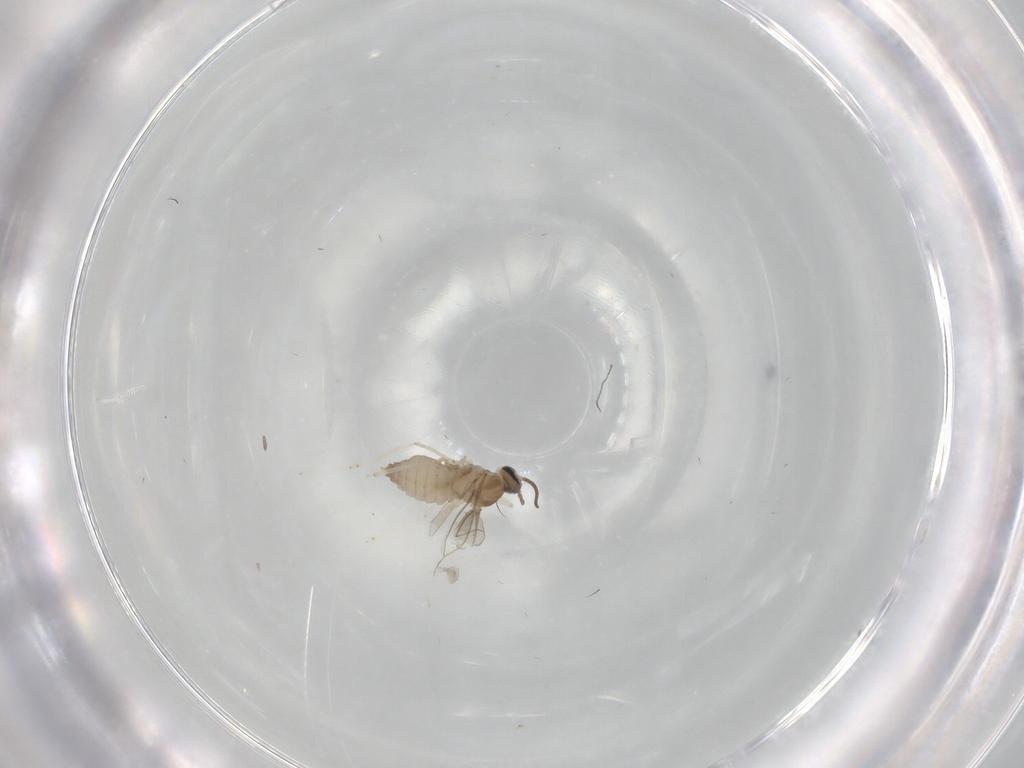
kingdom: Animalia
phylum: Arthropoda
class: Insecta
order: Diptera
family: Cecidomyiidae
